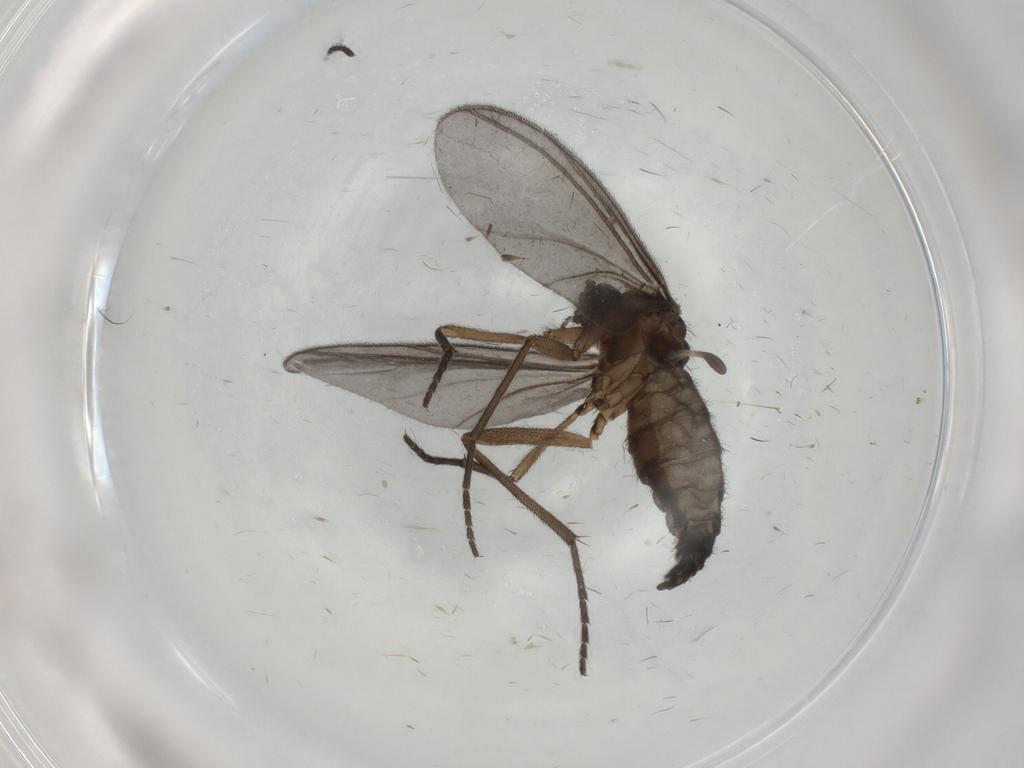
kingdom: Animalia
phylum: Arthropoda
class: Insecta
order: Diptera
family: Sciaridae
